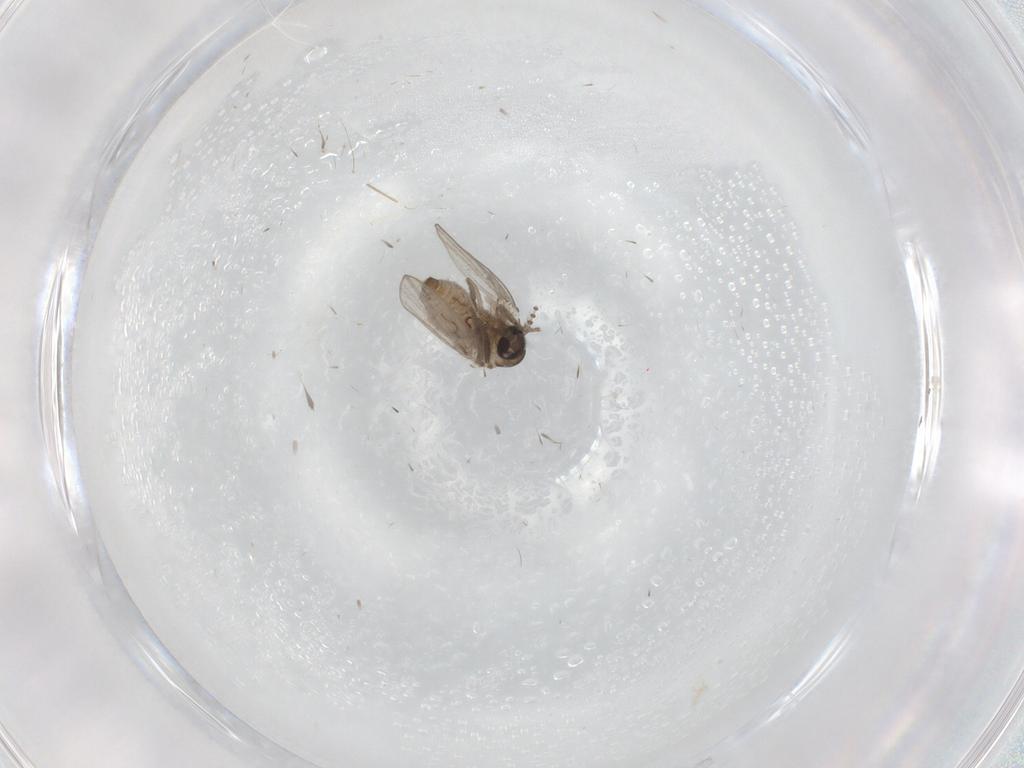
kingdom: Animalia
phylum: Arthropoda
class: Insecta
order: Diptera
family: Psychodidae
